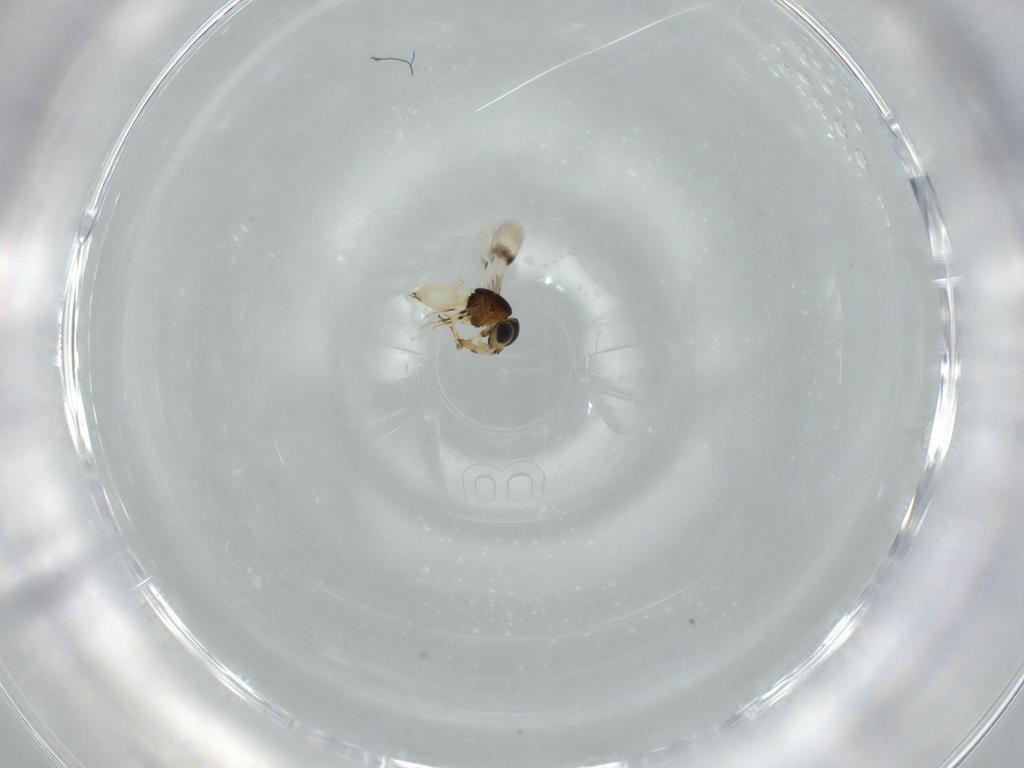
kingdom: Animalia
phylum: Arthropoda
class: Insecta
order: Hymenoptera
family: Scelionidae
